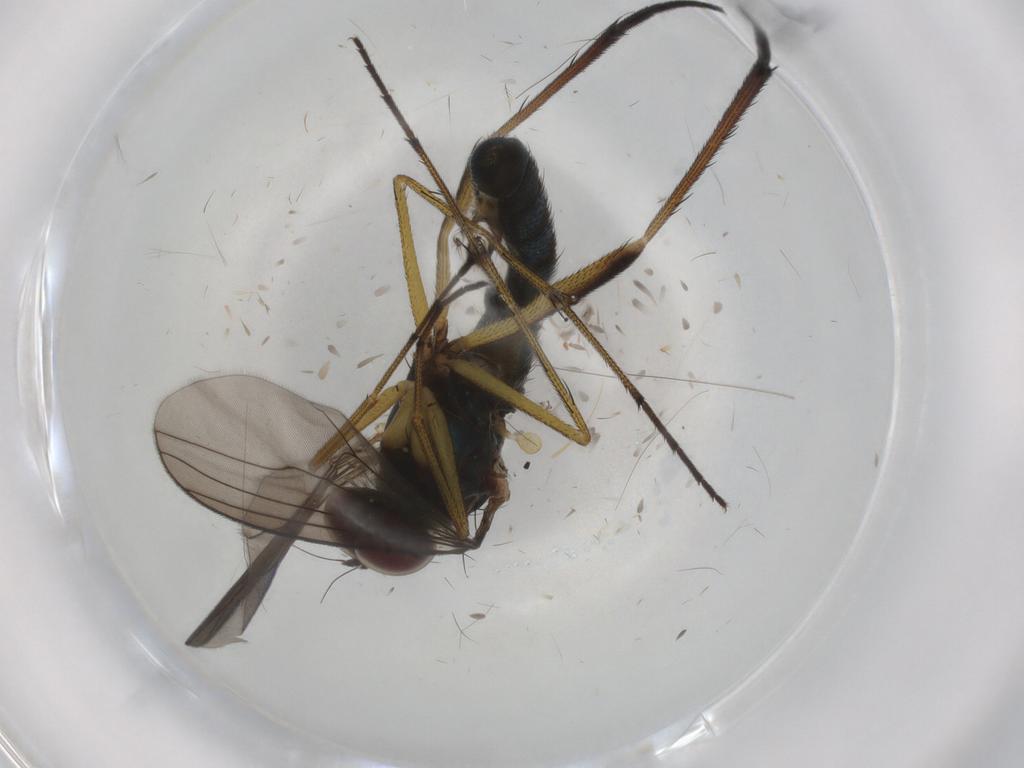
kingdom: Animalia
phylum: Arthropoda
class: Insecta
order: Diptera
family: Dolichopodidae
